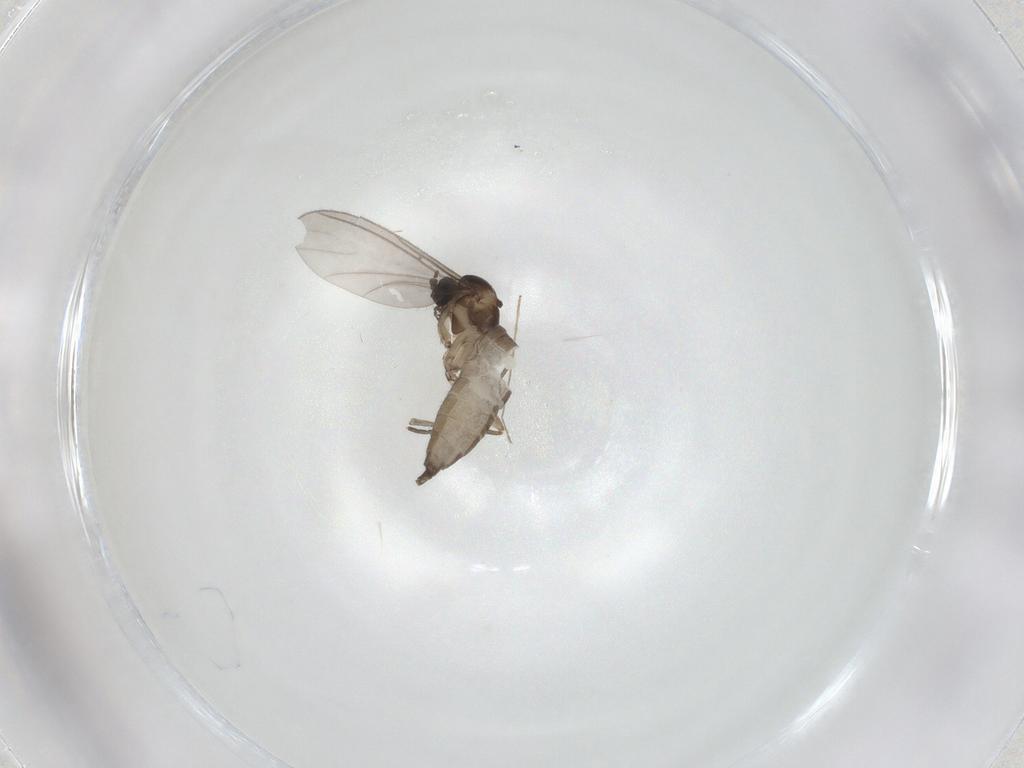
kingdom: Animalia
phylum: Arthropoda
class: Insecta
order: Diptera
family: Sciaridae
